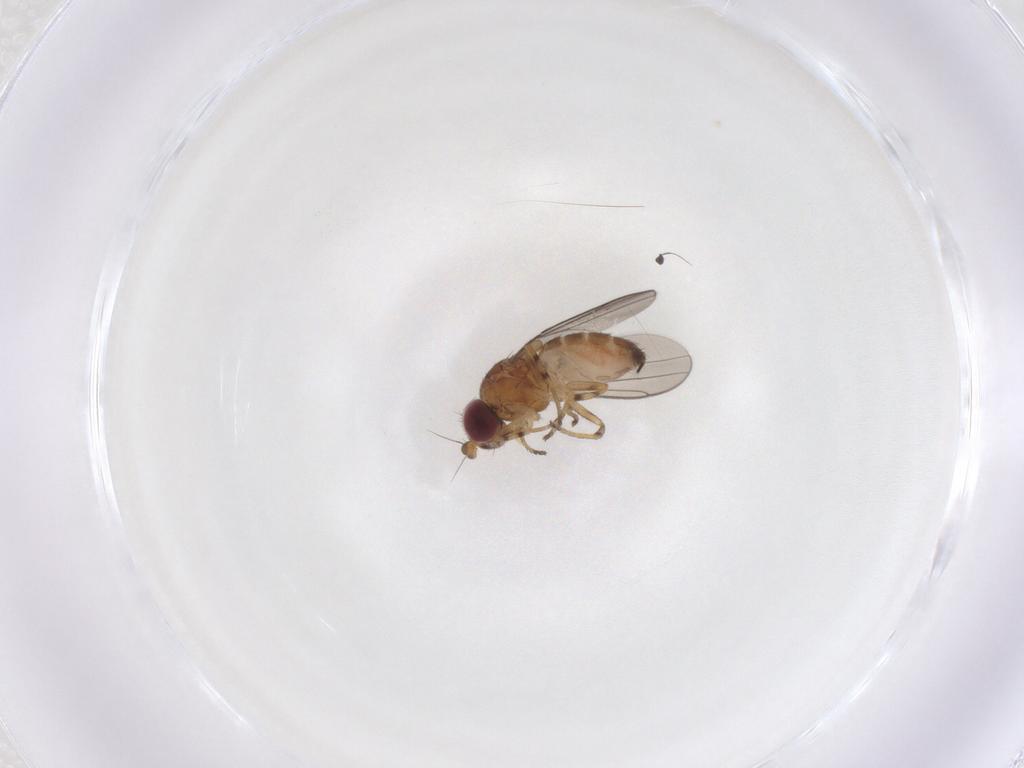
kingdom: Animalia
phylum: Arthropoda
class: Insecta
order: Diptera
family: Chloropidae
